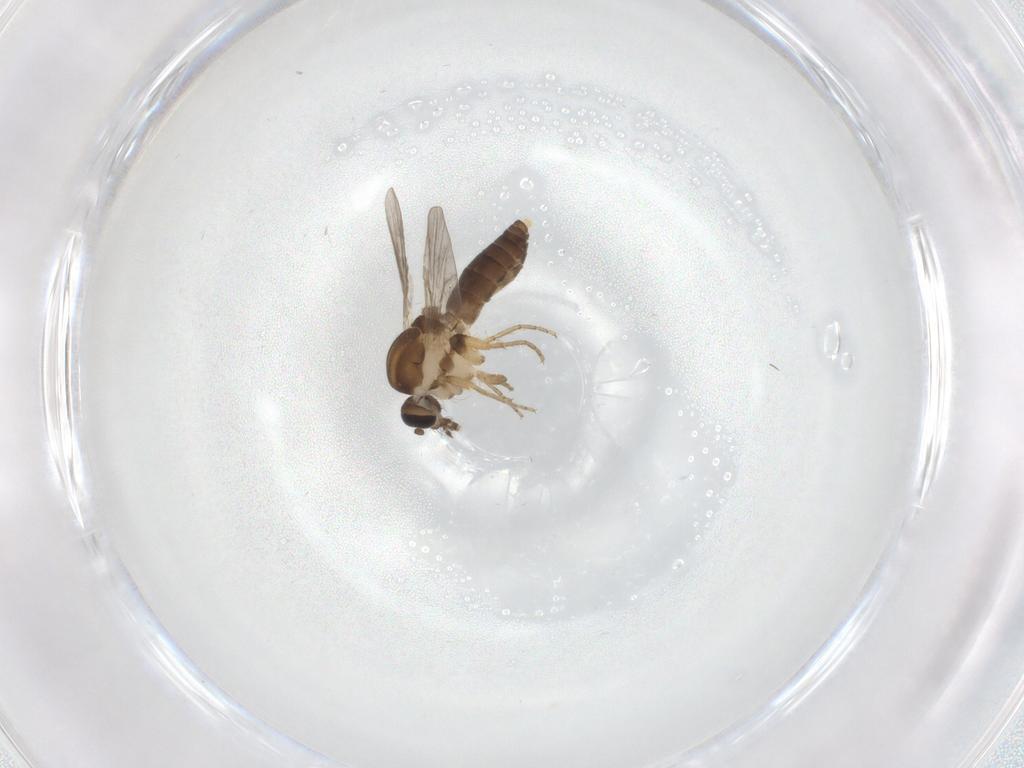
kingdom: Animalia
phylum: Arthropoda
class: Insecta
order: Diptera
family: Ceratopogonidae
